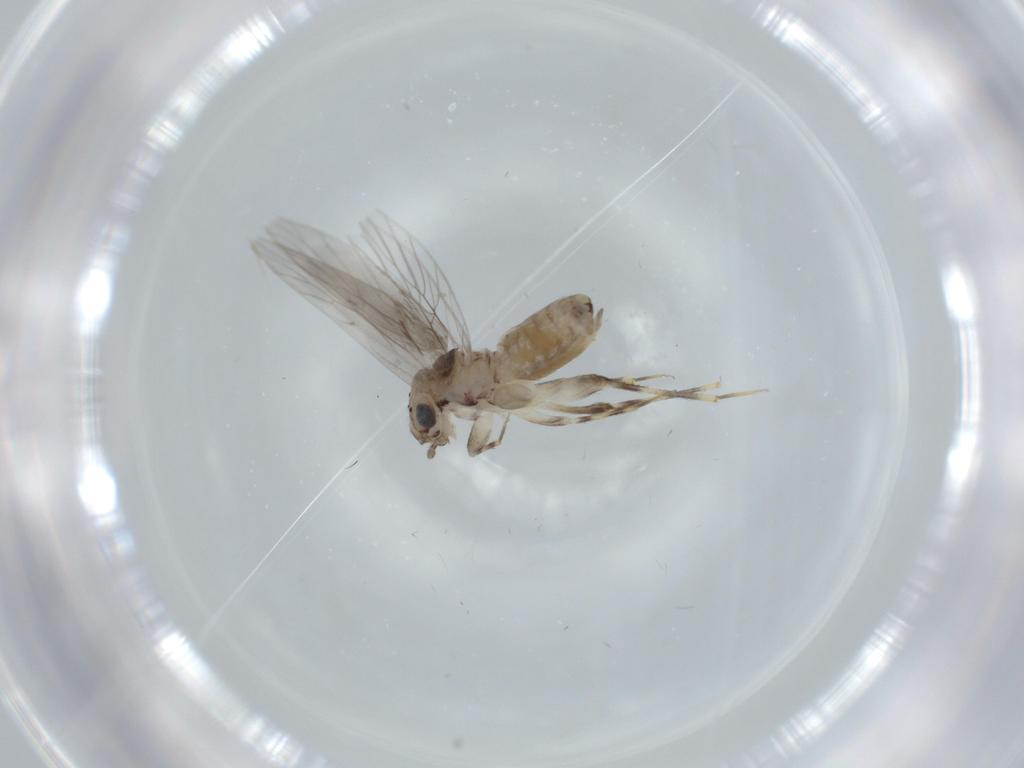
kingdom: Animalia
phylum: Arthropoda
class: Insecta
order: Psocodea
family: Lepidopsocidae
